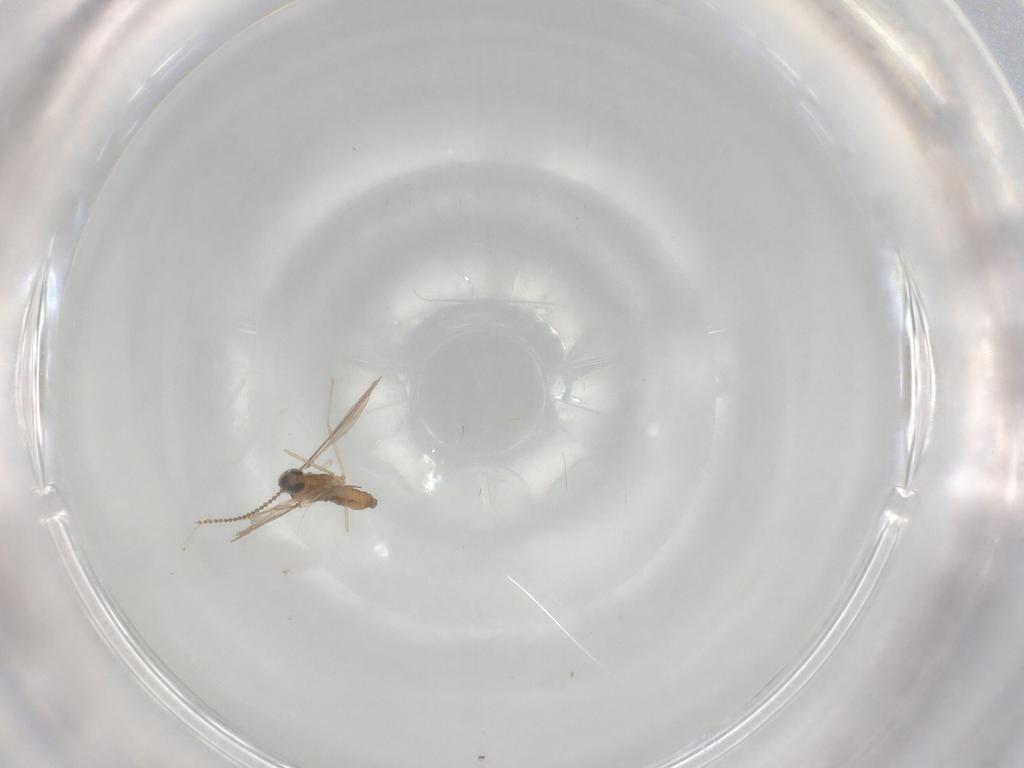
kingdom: Animalia
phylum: Arthropoda
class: Insecta
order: Diptera
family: Cecidomyiidae
